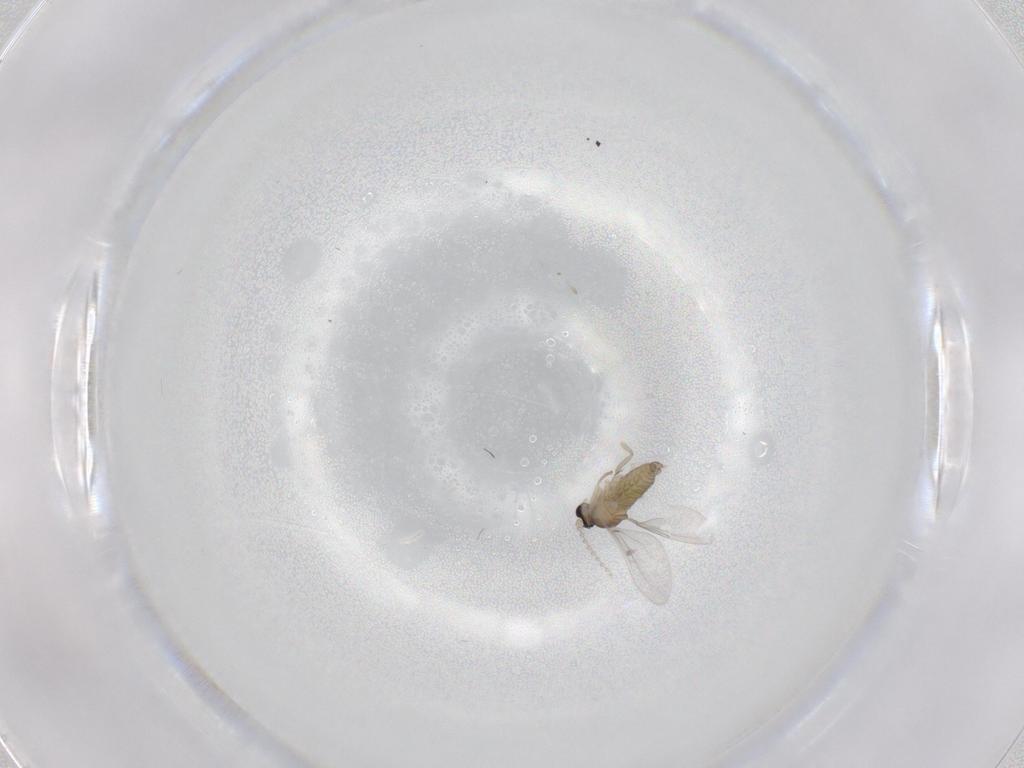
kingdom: Animalia
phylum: Arthropoda
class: Insecta
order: Diptera
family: Cecidomyiidae
